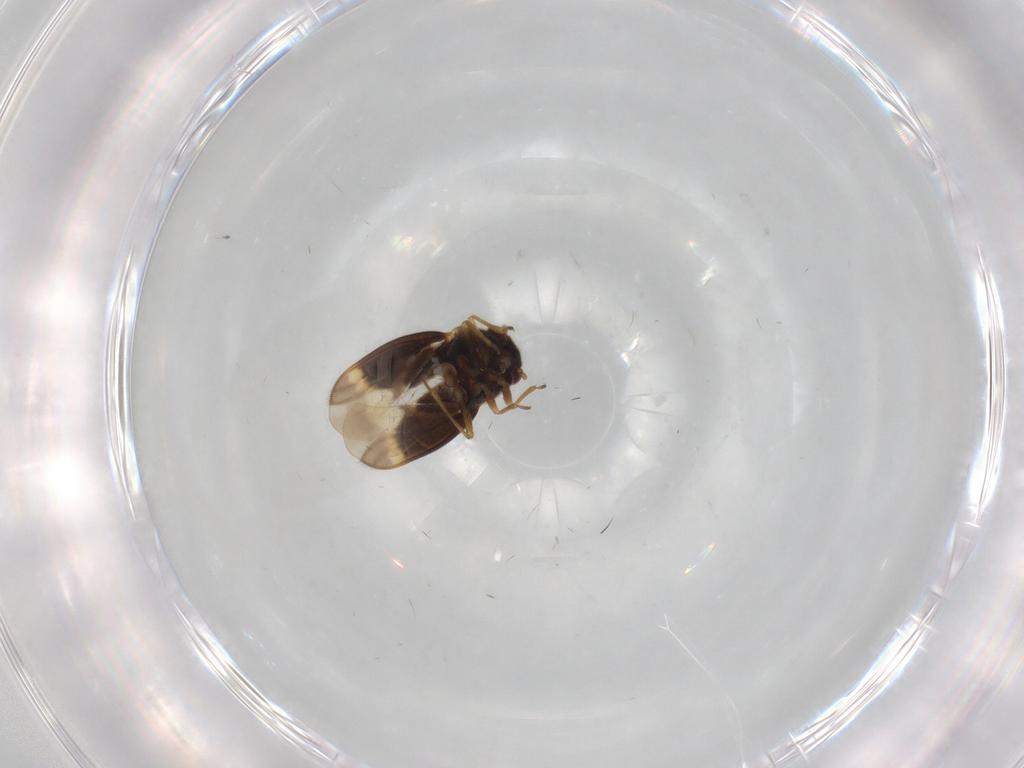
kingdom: Animalia
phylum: Arthropoda
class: Insecta
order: Hemiptera
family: Schizopteridae
